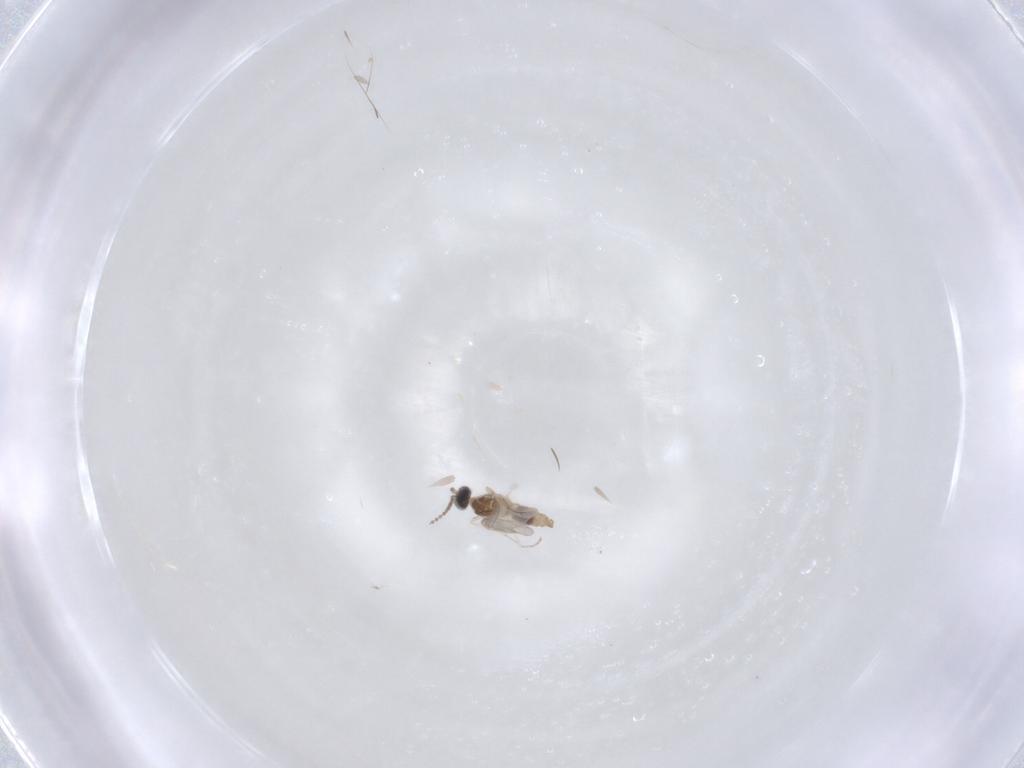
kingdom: Animalia
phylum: Arthropoda
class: Insecta
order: Diptera
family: Cecidomyiidae
